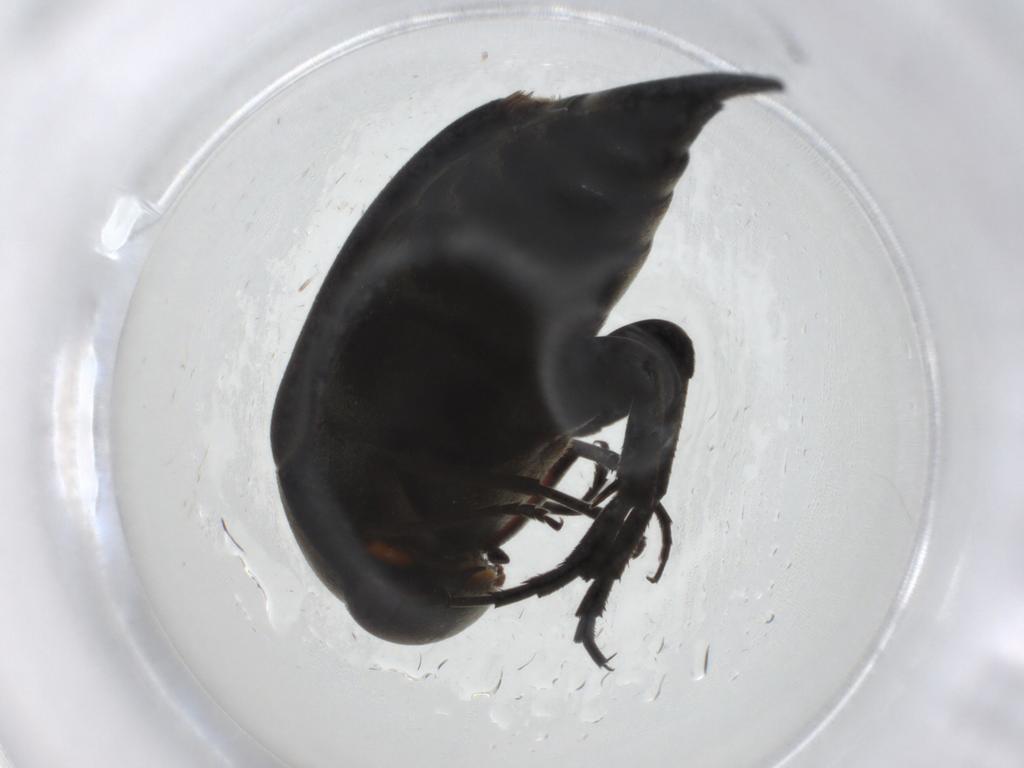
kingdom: Animalia
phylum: Arthropoda
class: Insecta
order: Coleoptera
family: Mordellidae
